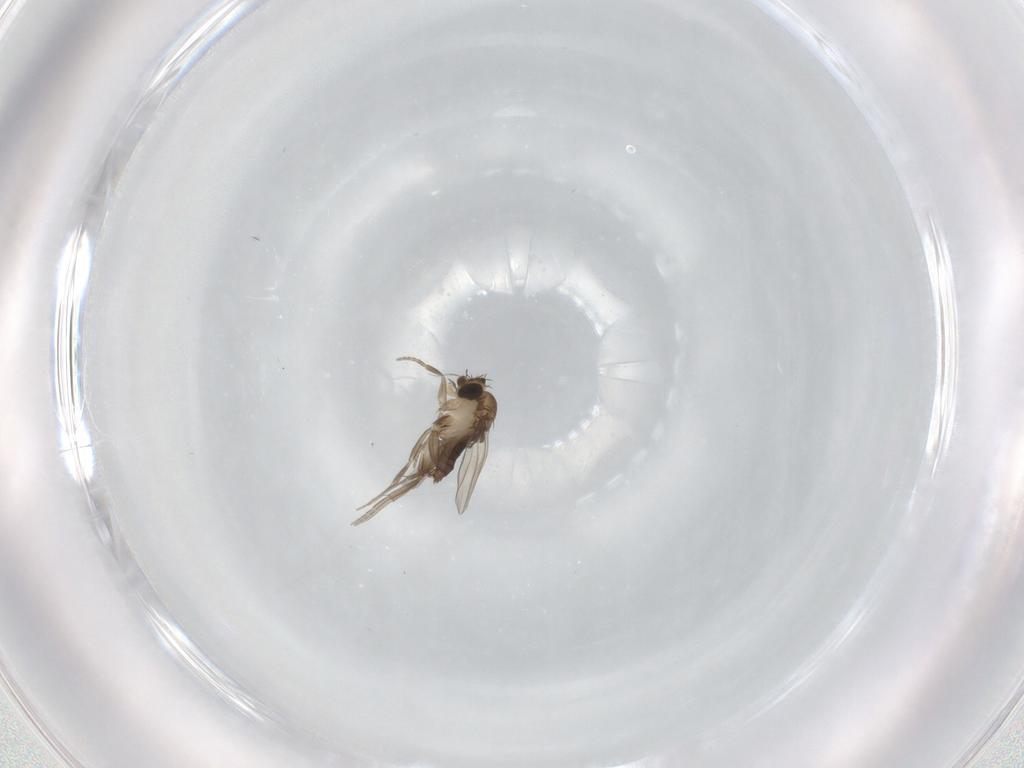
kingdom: Animalia
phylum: Arthropoda
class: Insecta
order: Diptera
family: Phoridae
